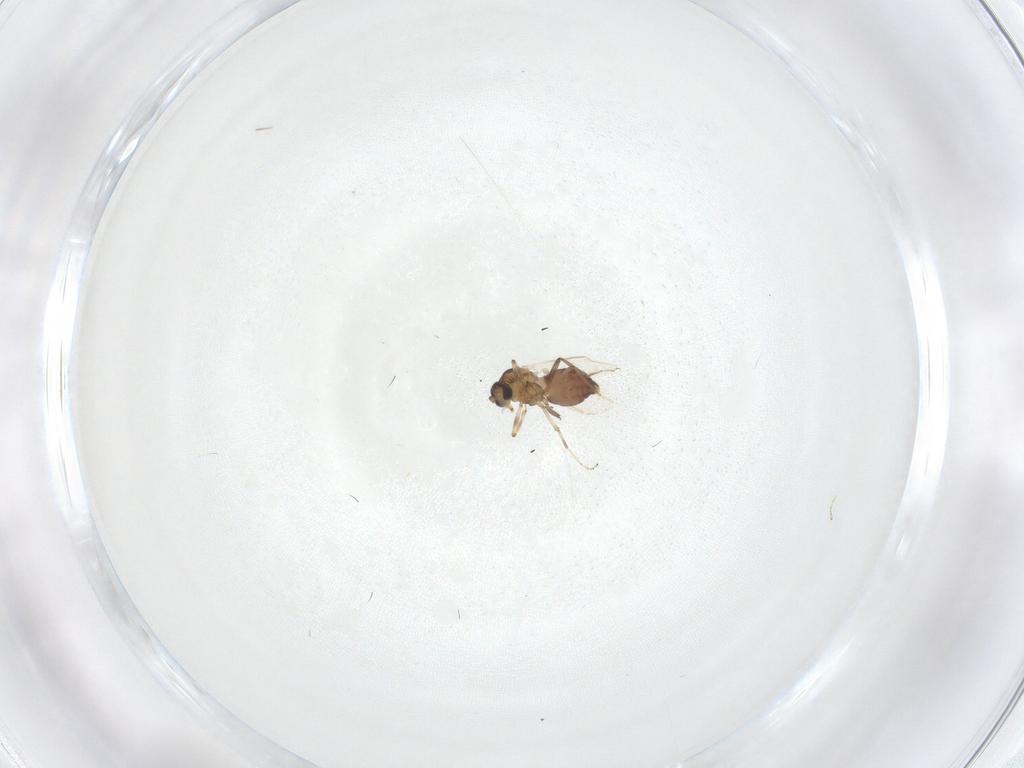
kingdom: Animalia
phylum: Arthropoda
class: Insecta
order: Diptera
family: Ceratopogonidae
